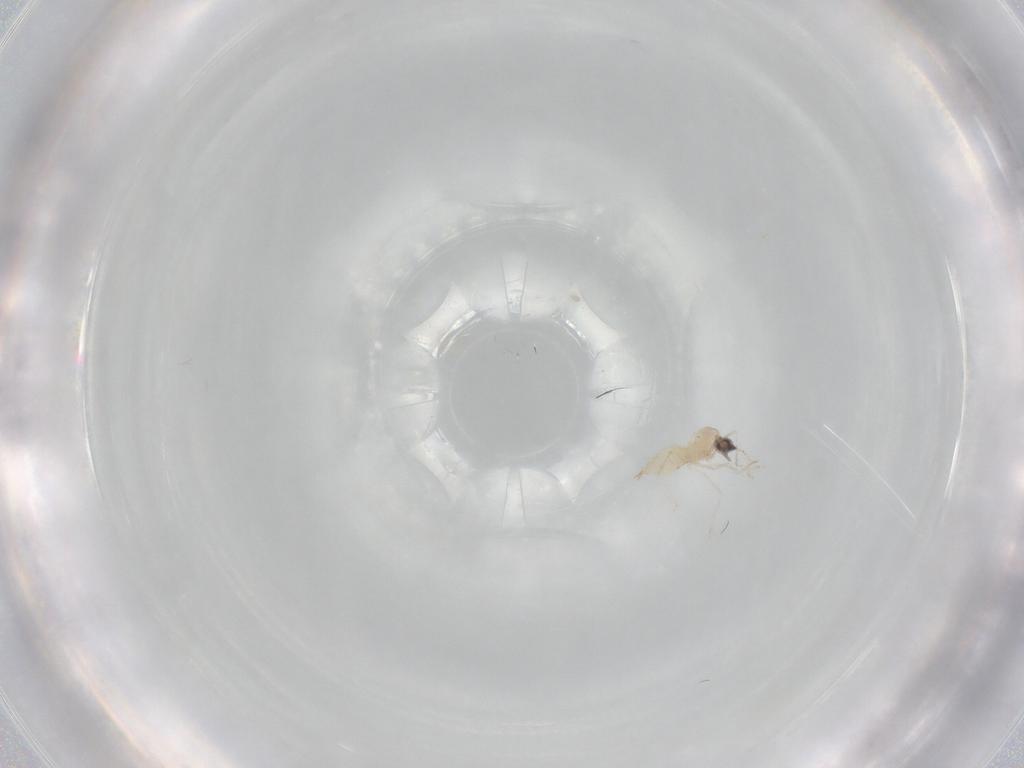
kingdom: Animalia
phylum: Arthropoda
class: Insecta
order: Diptera
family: Cecidomyiidae
